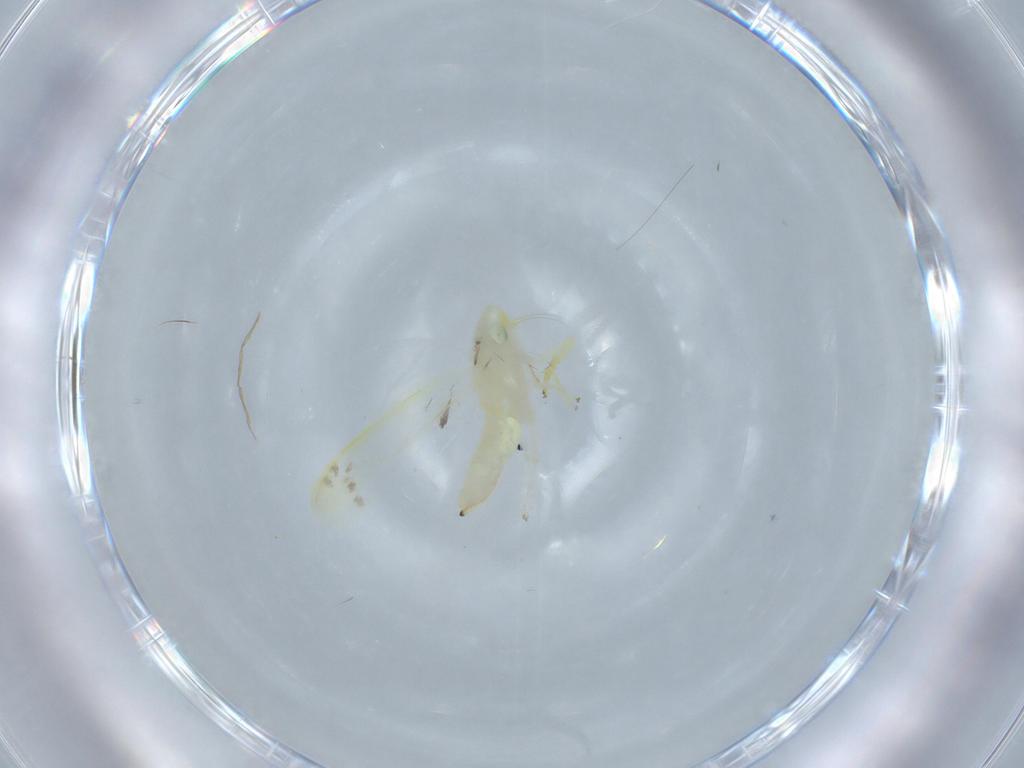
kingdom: Animalia
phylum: Arthropoda
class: Insecta
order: Hemiptera
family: Cicadellidae
